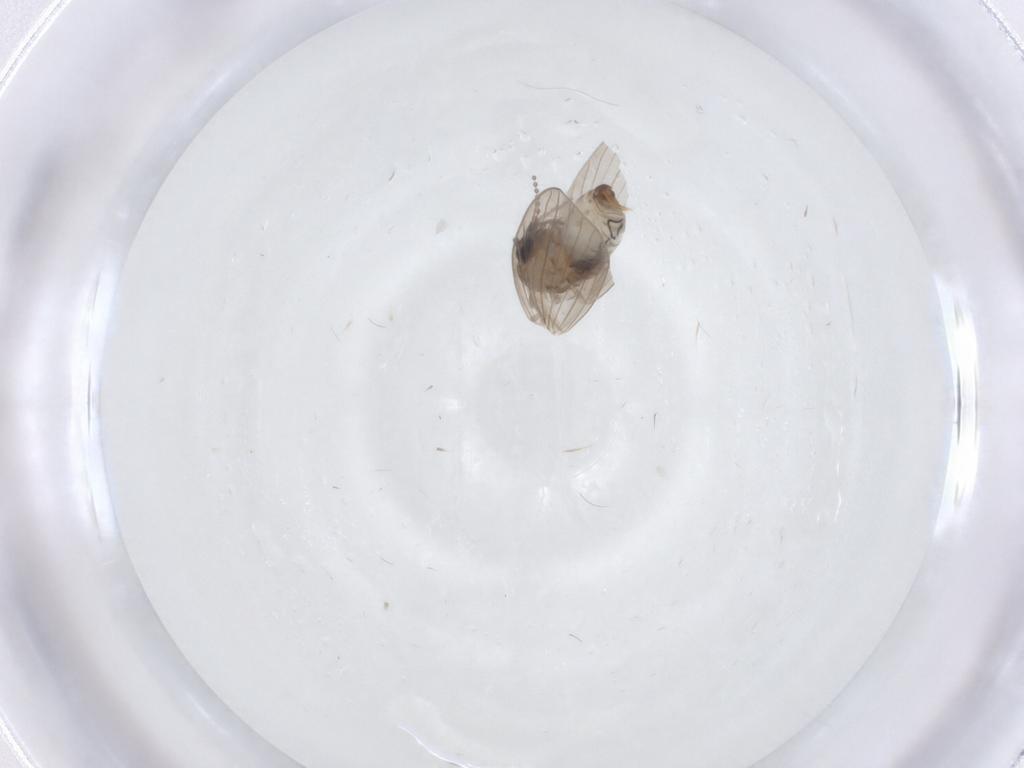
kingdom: Animalia
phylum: Arthropoda
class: Insecta
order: Diptera
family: Psychodidae
